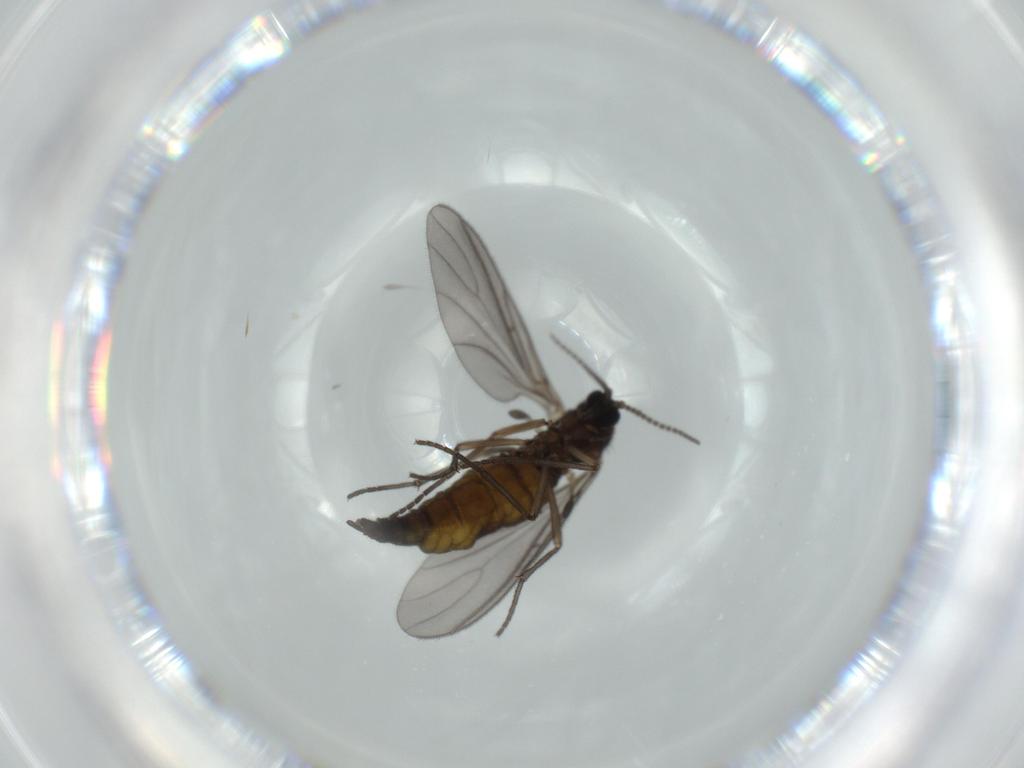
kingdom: Animalia
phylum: Arthropoda
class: Insecta
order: Diptera
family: Sciaridae
